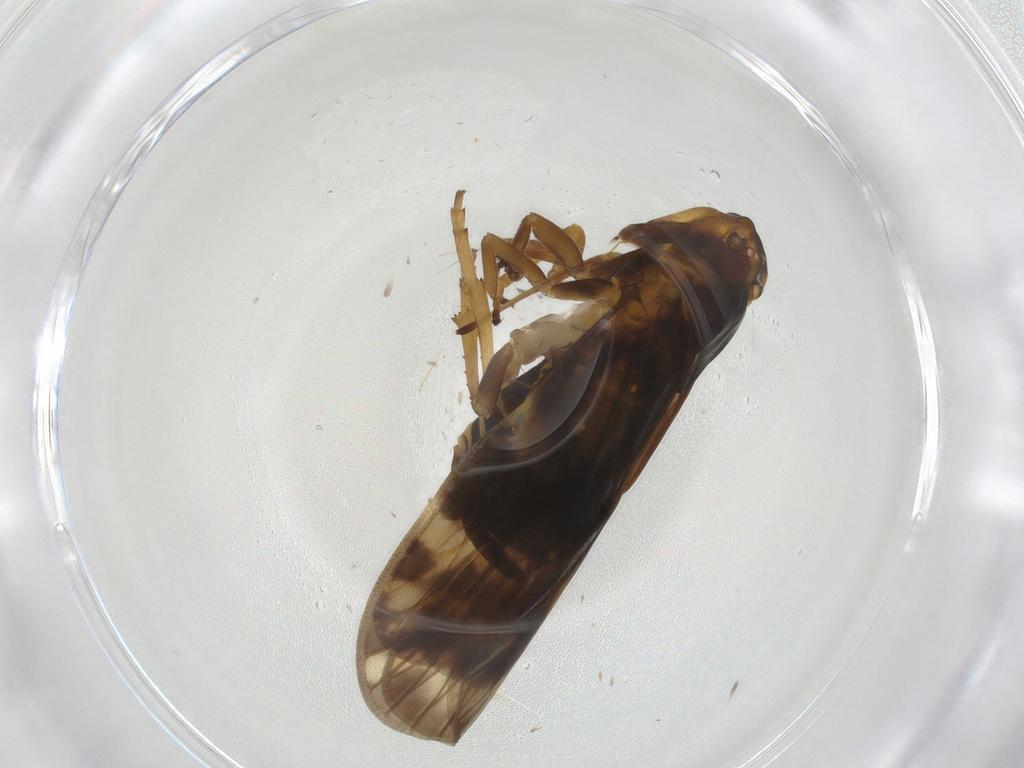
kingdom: Animalia
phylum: Arthropoda
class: Insecta
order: Hemiptera
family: Cixiidae
